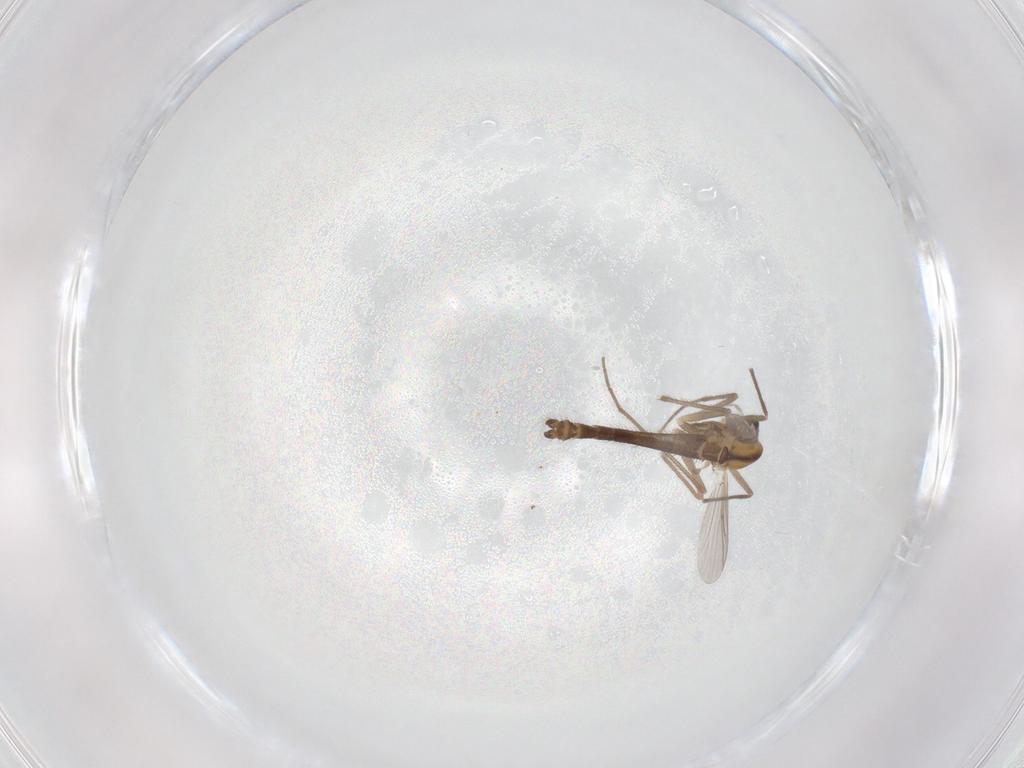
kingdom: Animalia
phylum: Arthropoda
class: Insecta
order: Diptera
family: Chironomidae
